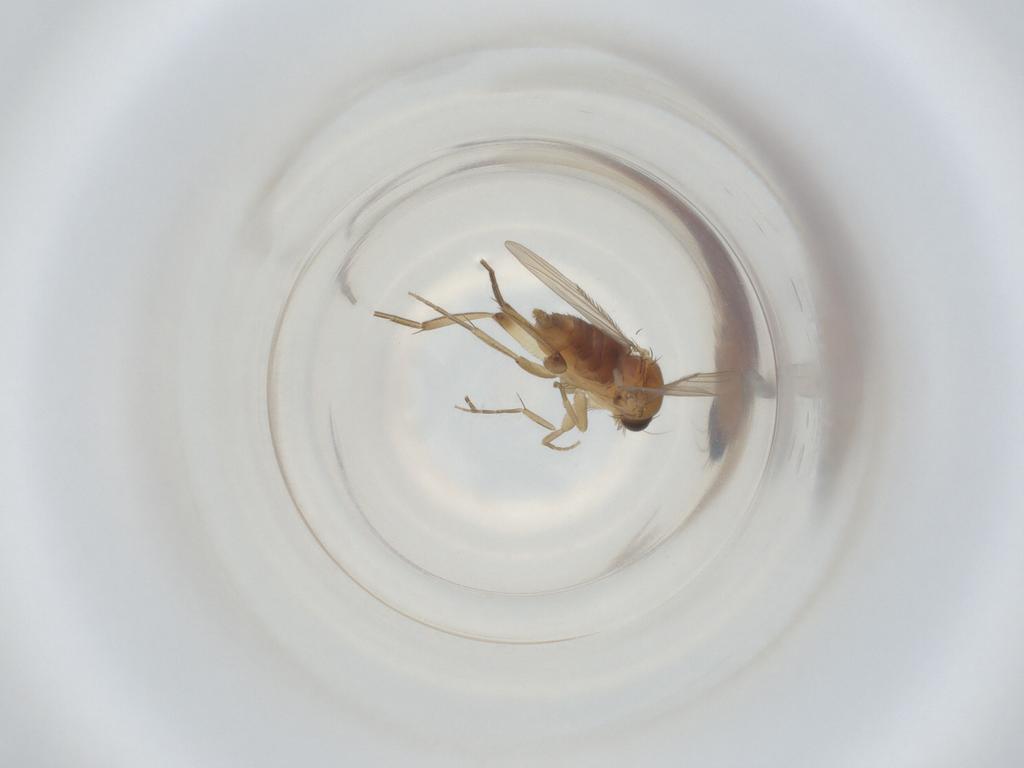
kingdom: Animalia
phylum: Arthropoda
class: Insecta
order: Diptera
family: Phoridae
